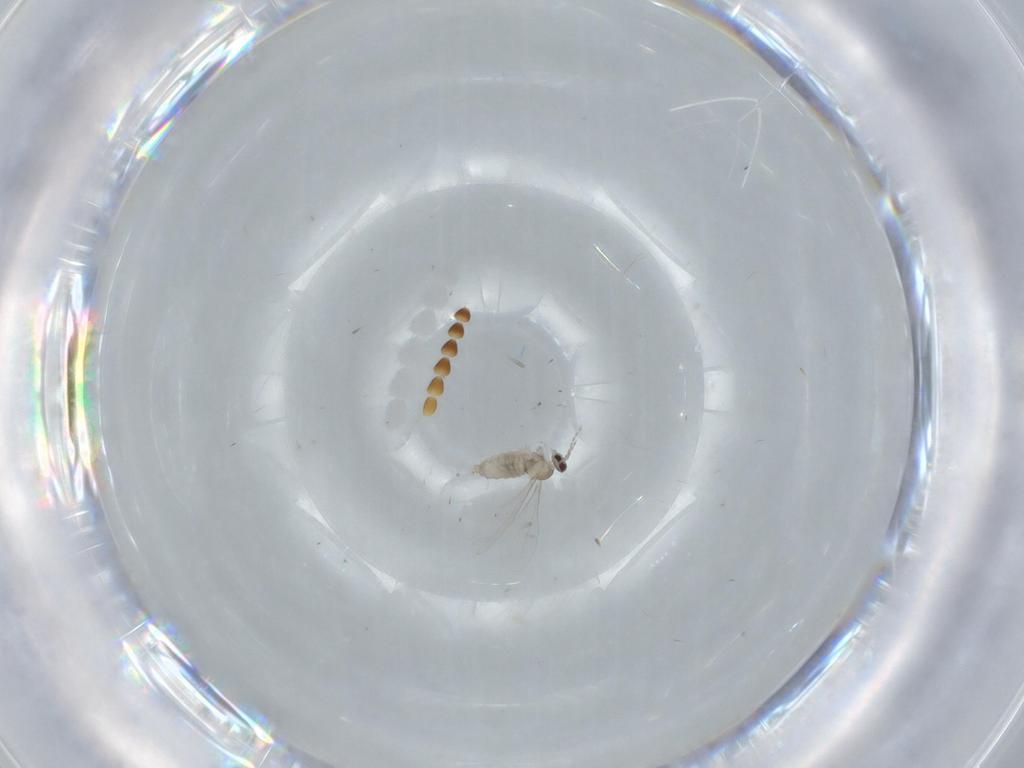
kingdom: Animalia
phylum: Arthropoda
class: Insecta
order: Diptera
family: Cecidomyiidae
